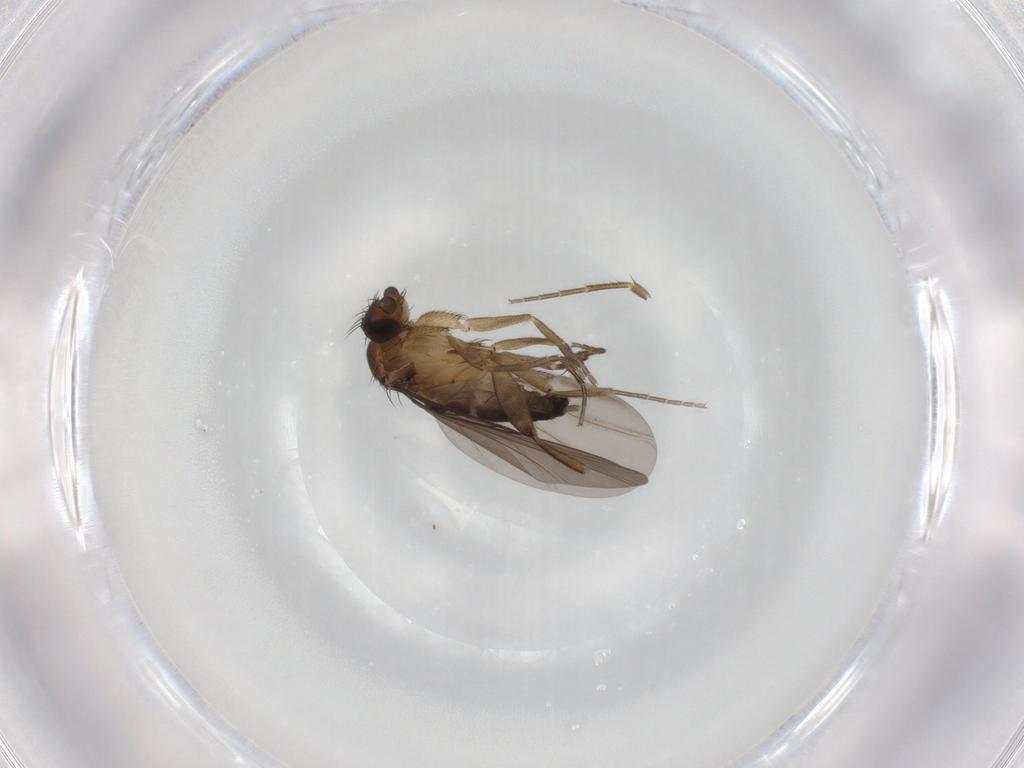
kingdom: Animalia
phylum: Arthropoda
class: Insecta
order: Diptera
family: Phoridae
